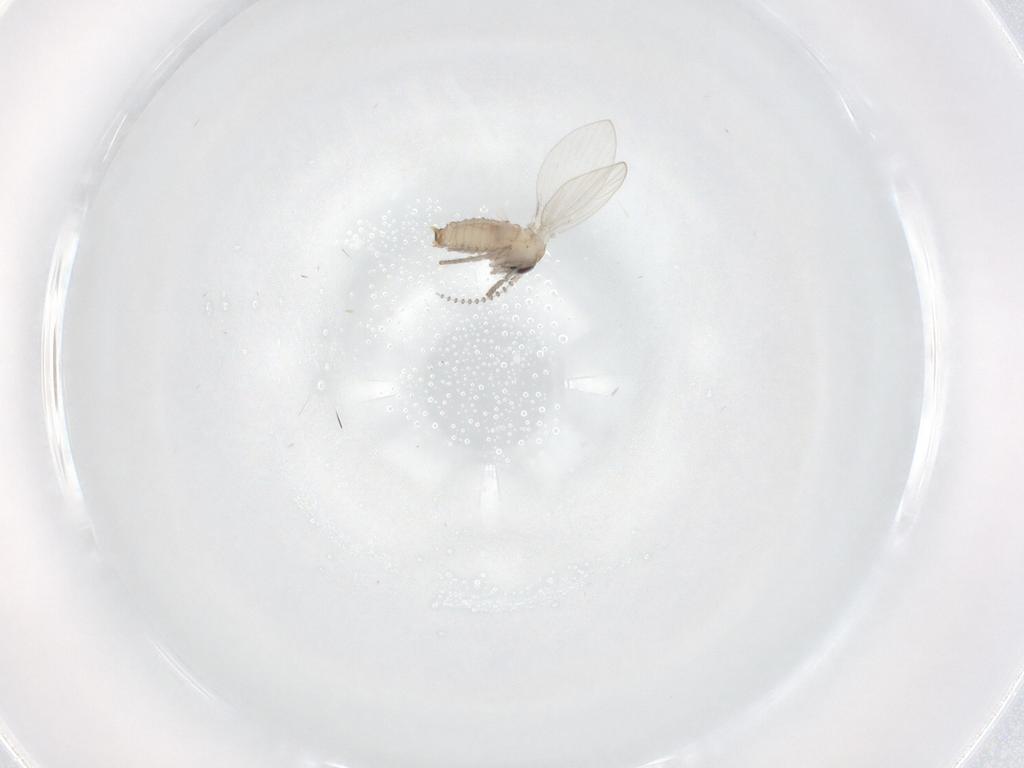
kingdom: Animalia
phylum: Arthropoda
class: Insecta
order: Diptera
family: Psychodidae
